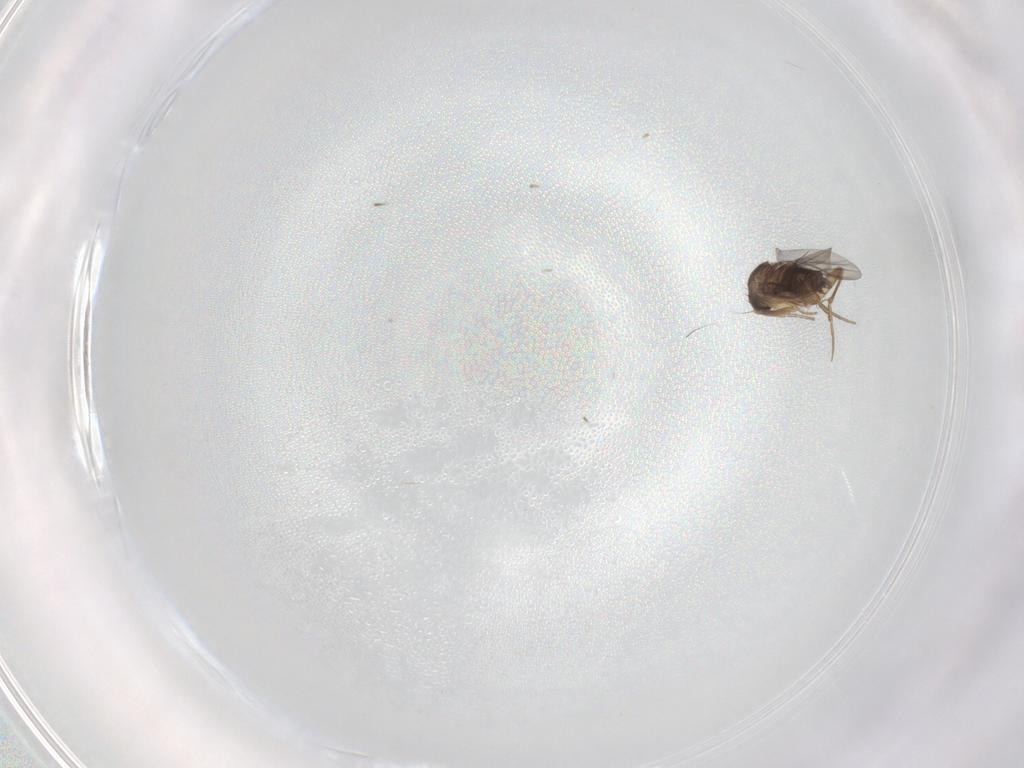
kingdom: Animalia
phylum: Arthropoda
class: Insecta
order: Diptera
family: Phoridae
